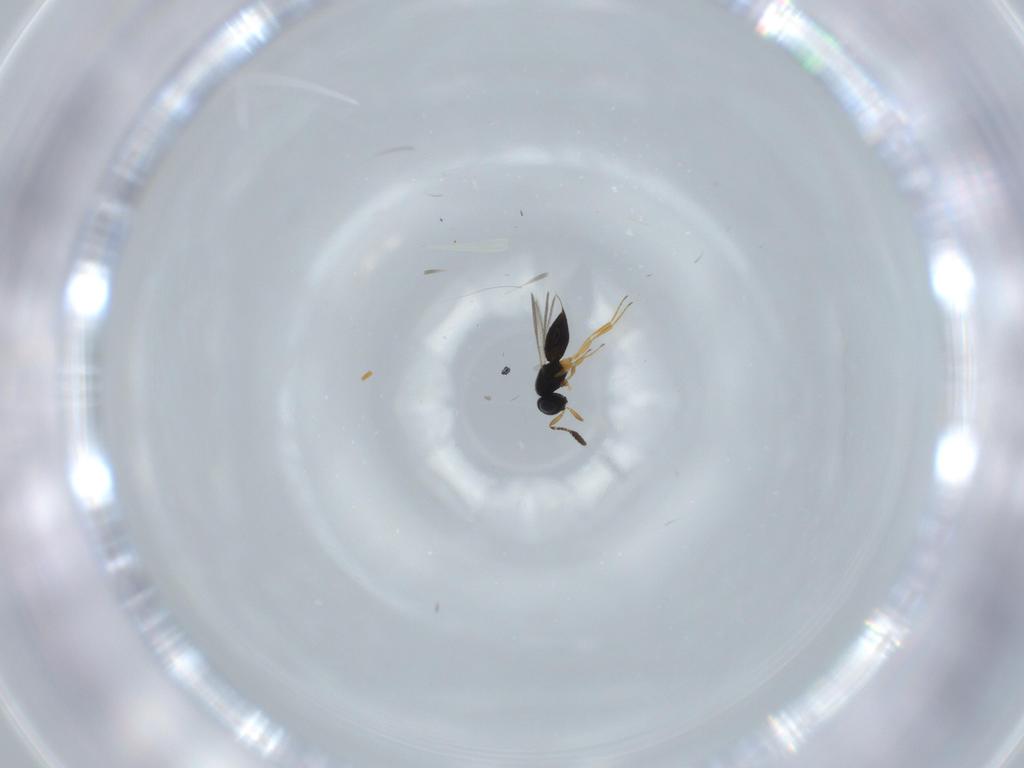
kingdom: Animalia
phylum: Arthropoda
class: Insecta
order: Hymenoptera
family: Scelionidae
